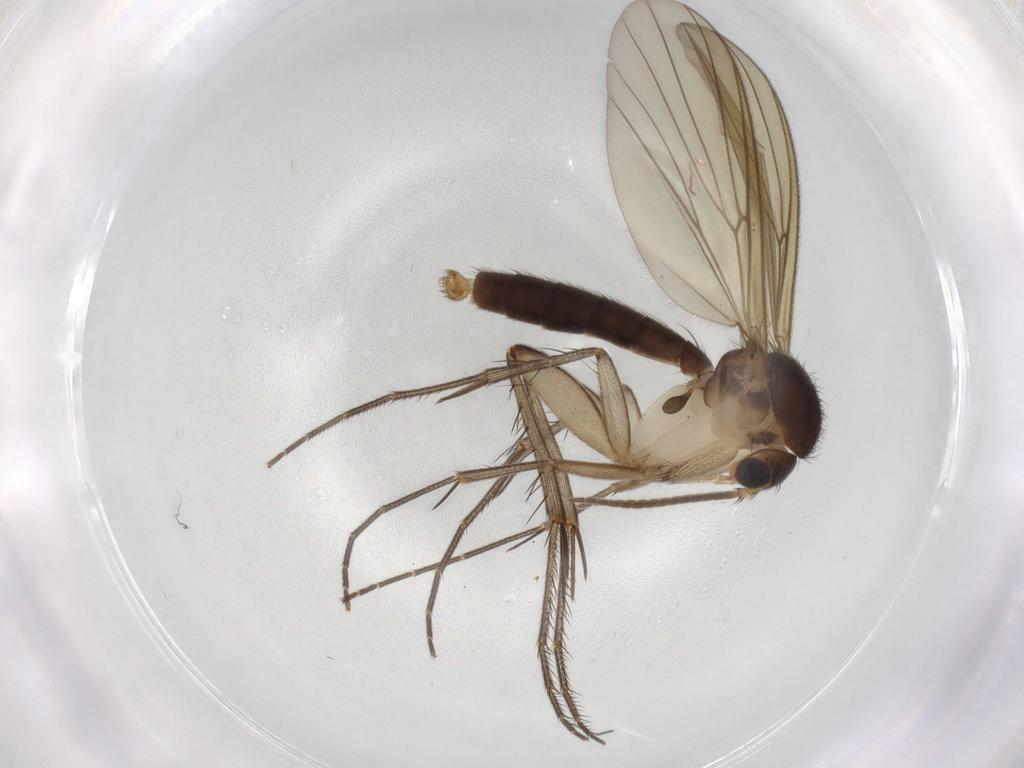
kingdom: Animalia
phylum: Arthropoda
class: Insecta
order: Diptera
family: Mycetophilidae
